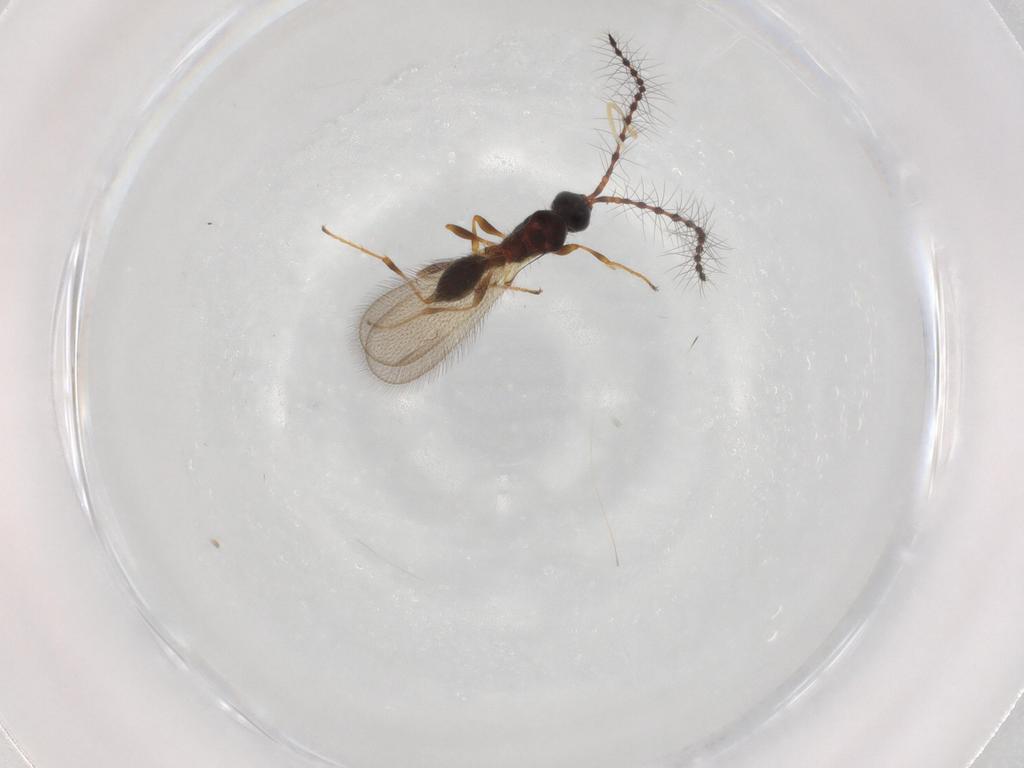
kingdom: Animalia
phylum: Arthropoda
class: Insecta
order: Hymenoptera
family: Diapriidae
